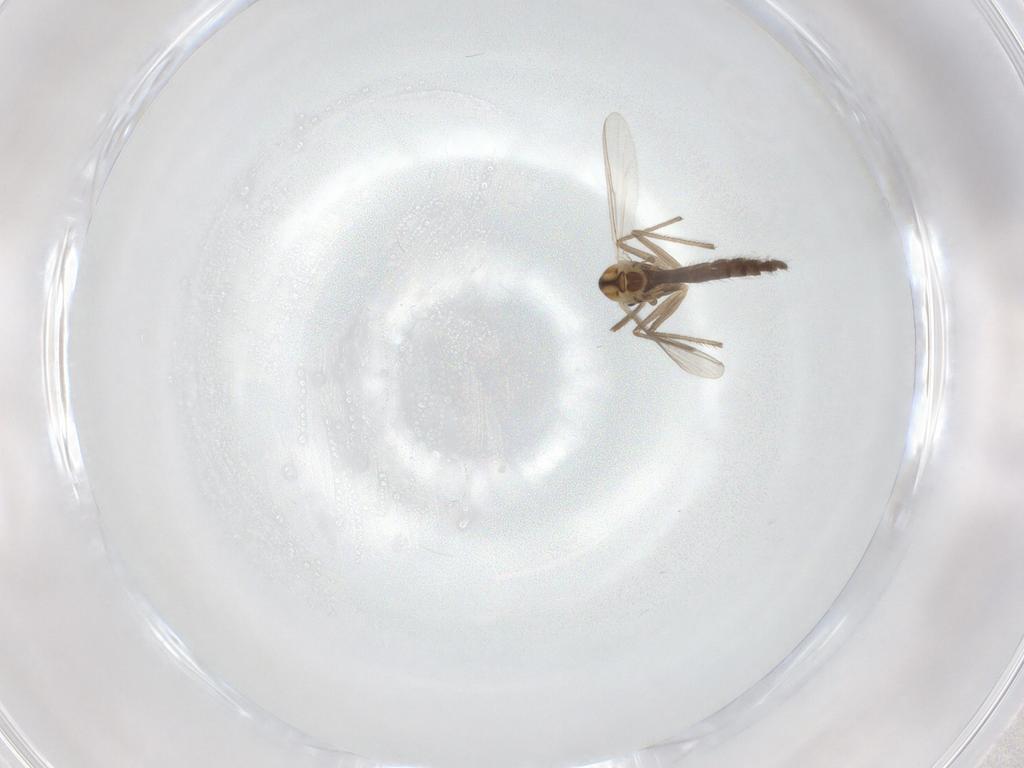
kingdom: Animalia
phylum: Arthropoda
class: Insecta
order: Diptera
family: Chironomidae
